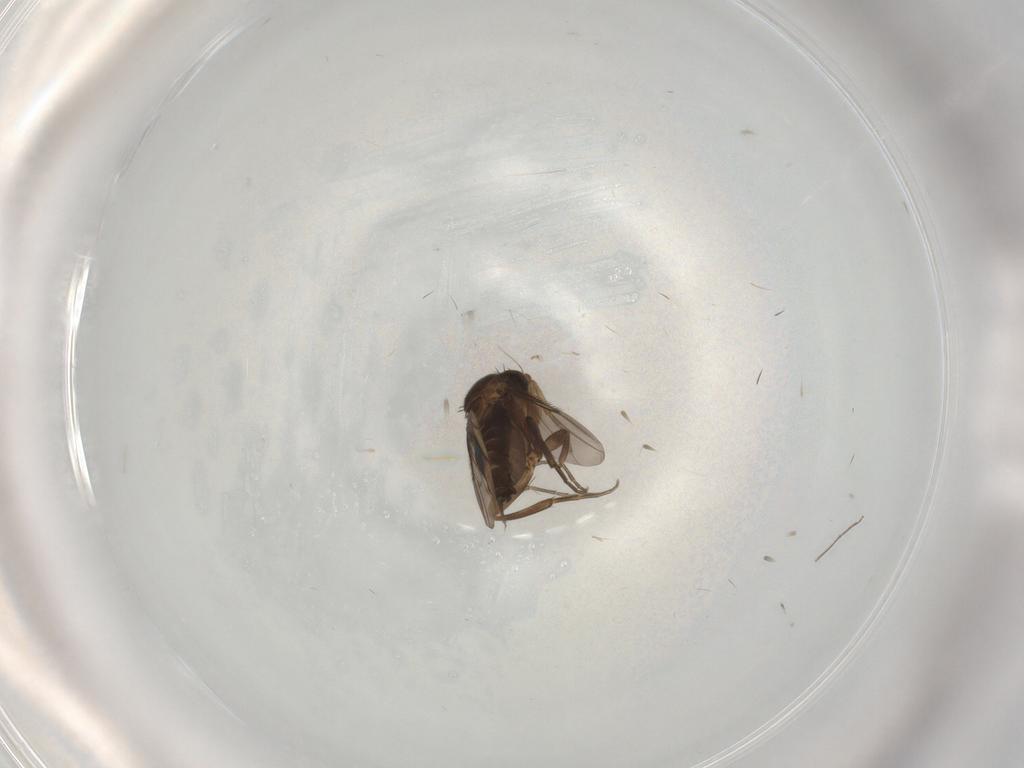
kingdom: Animalia
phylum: Arthropoda
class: Insecta
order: Diptera
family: Phoridae
